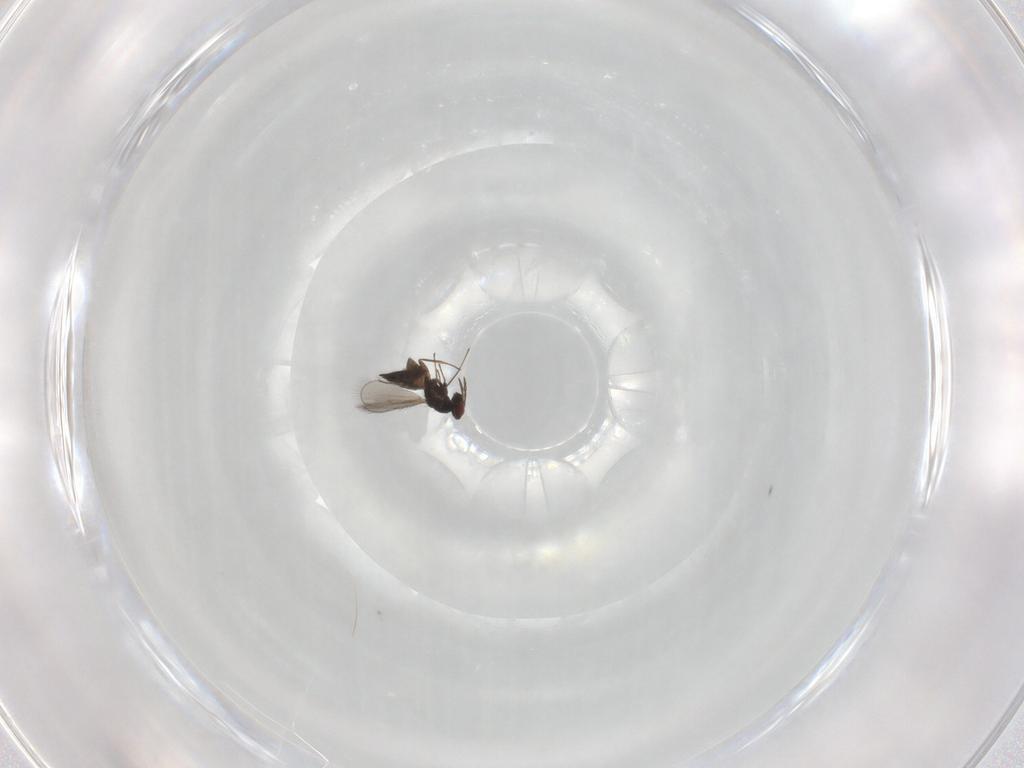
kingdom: Animalia
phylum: Arthropoda
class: Insecta
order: Hymenoptera
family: Eulophidae
